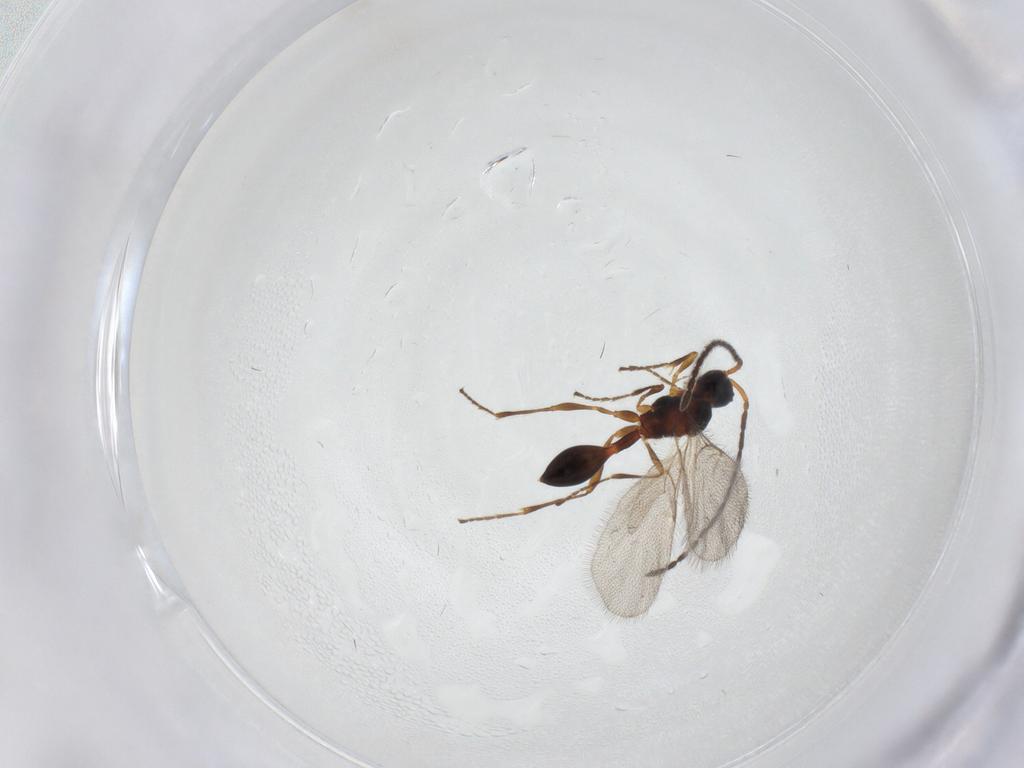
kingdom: Animalia
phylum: Arthropoda
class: Insecta
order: Hymenoptera
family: Diapriidae
